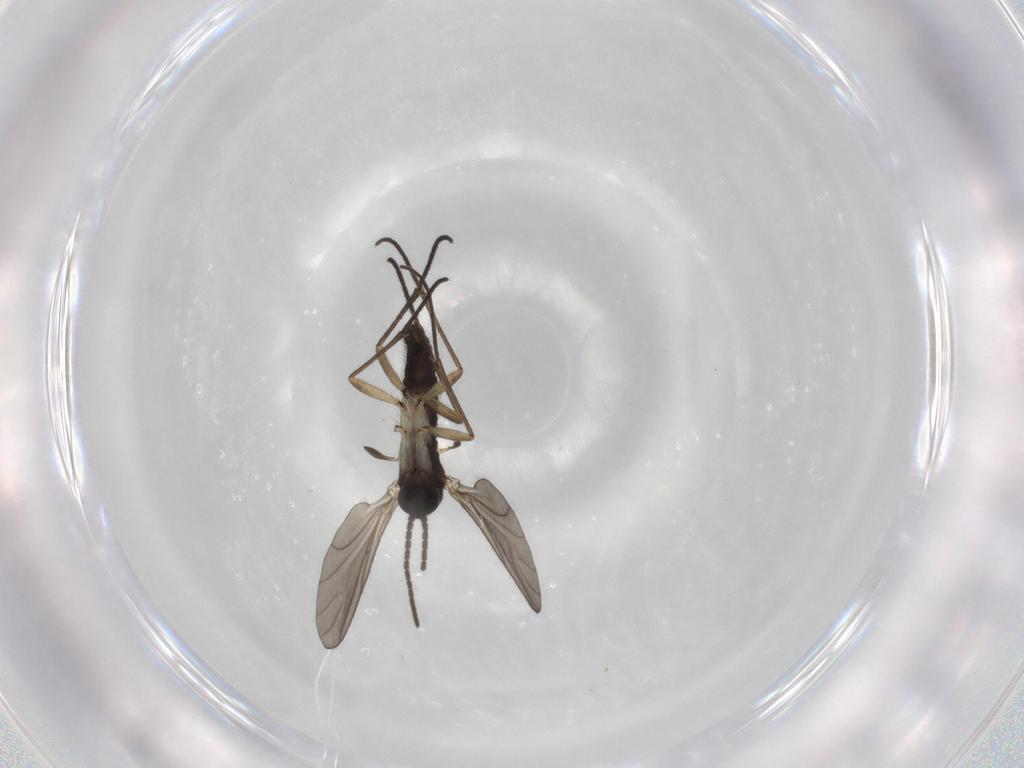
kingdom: Animalia
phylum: Arthropoda
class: Insecta
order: Diptera
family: Sciaridae
